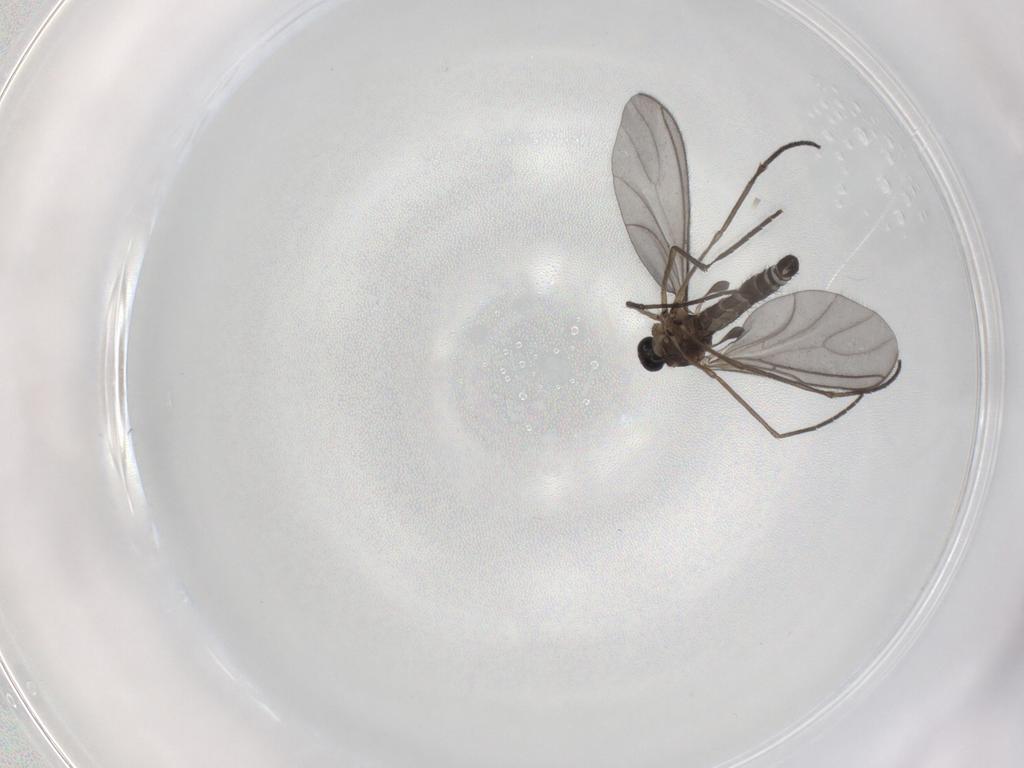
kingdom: Animalia
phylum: Arthropoda
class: Insecta
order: Diptera
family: Sciaridae
